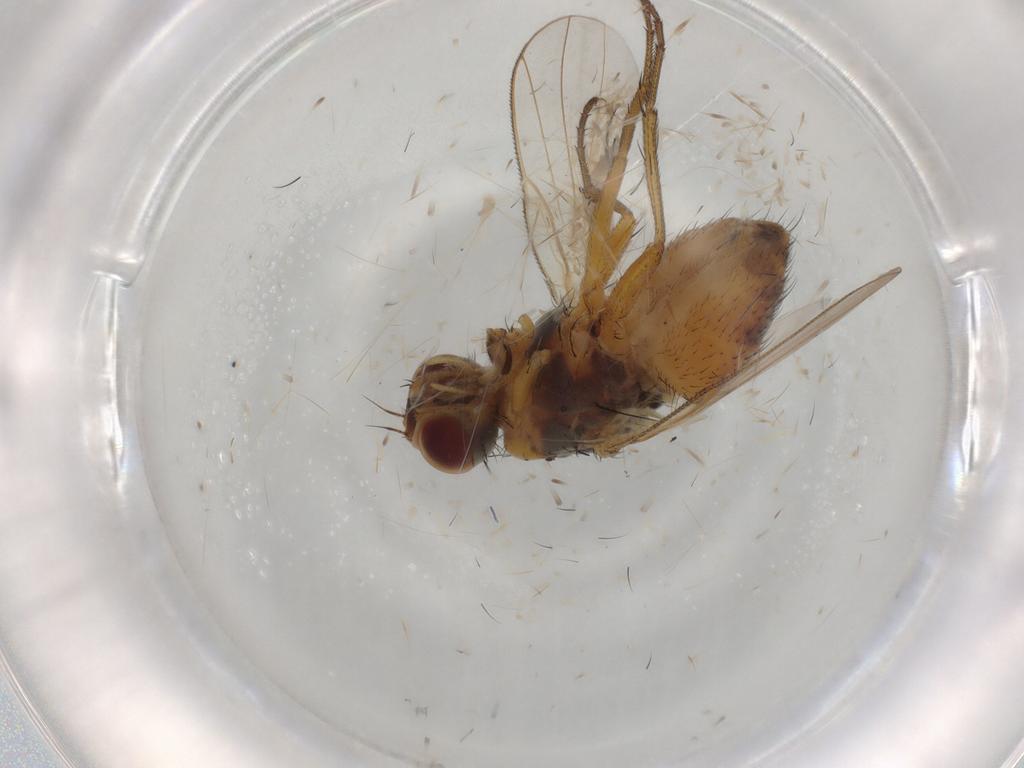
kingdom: Animalia
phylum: Arthropoda
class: Insecta
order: Diptera
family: Muscidae
